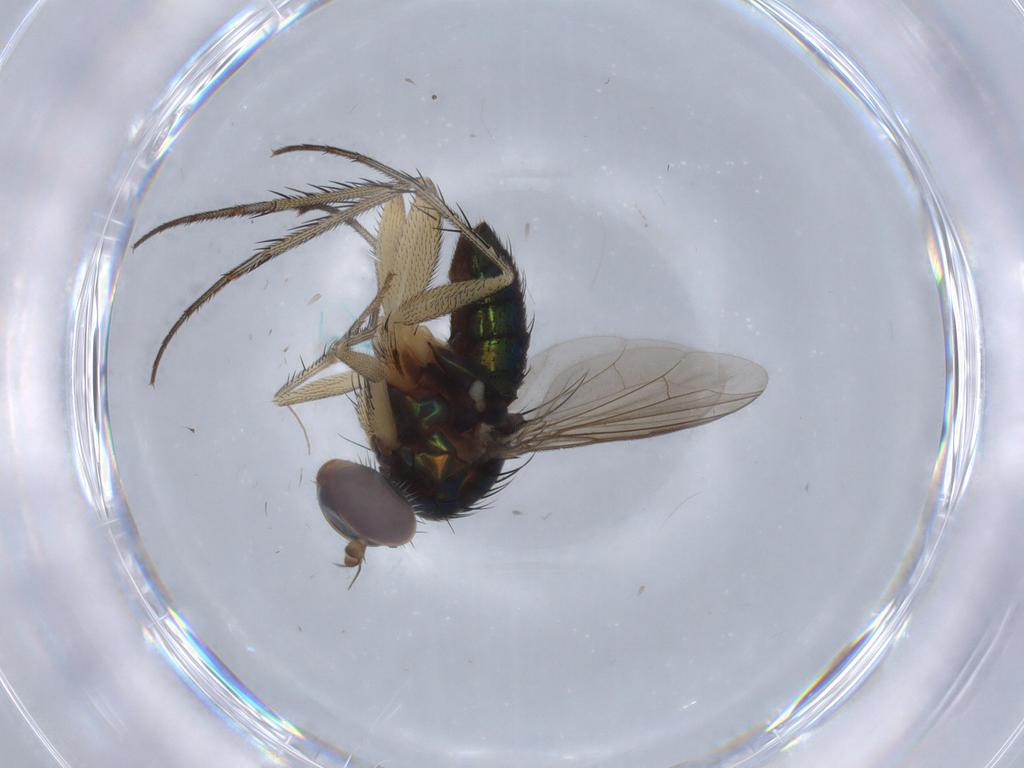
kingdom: Animalia
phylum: Arthropoda
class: Insecta
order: Diptera
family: Dolichopodidae
